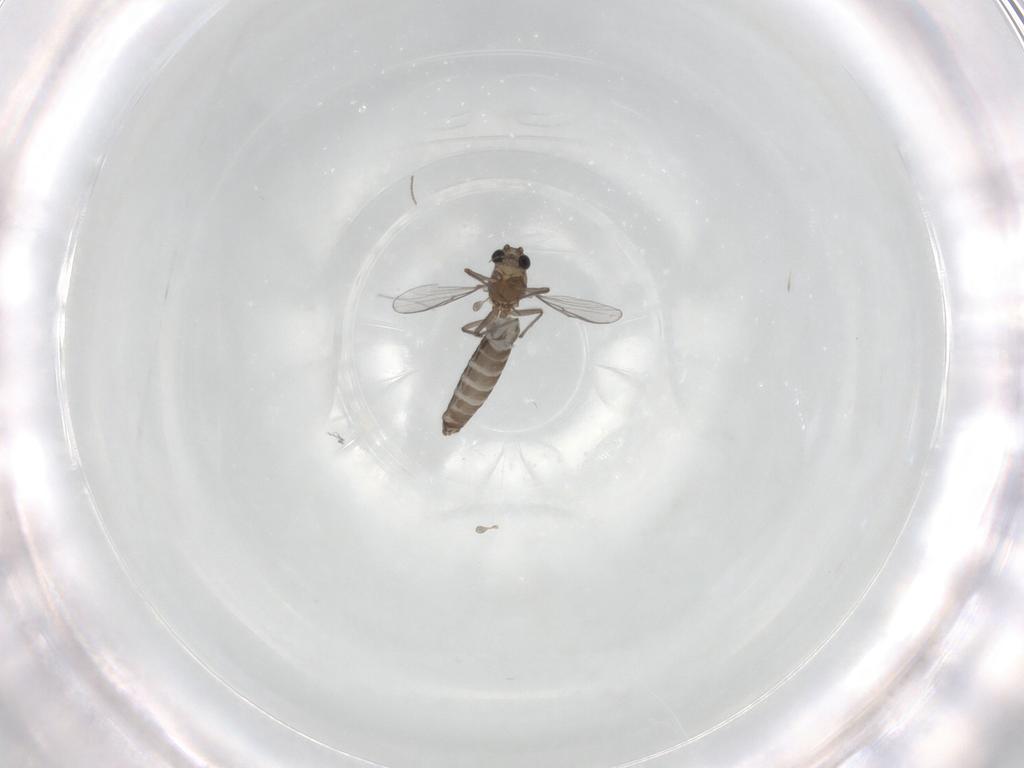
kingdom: Animalia
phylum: Arthropoda
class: Insecta
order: Diptera
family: Chironomidae
